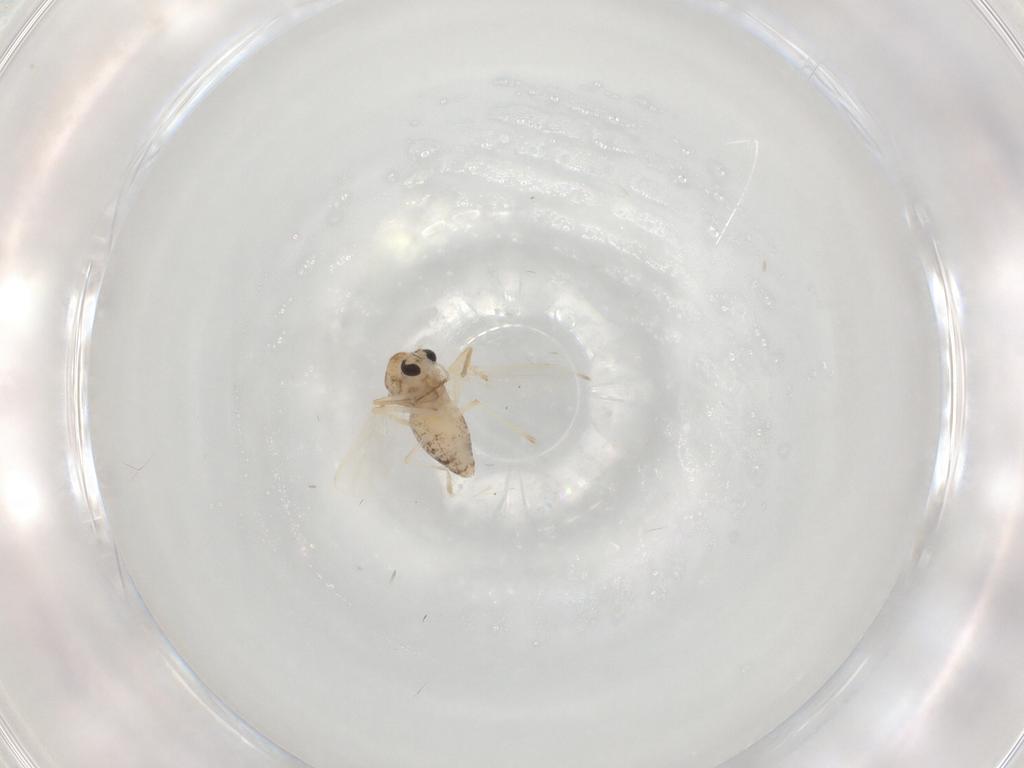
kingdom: Animalia
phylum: Arthropoda
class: Insecta
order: Diptera
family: Chironomidae
